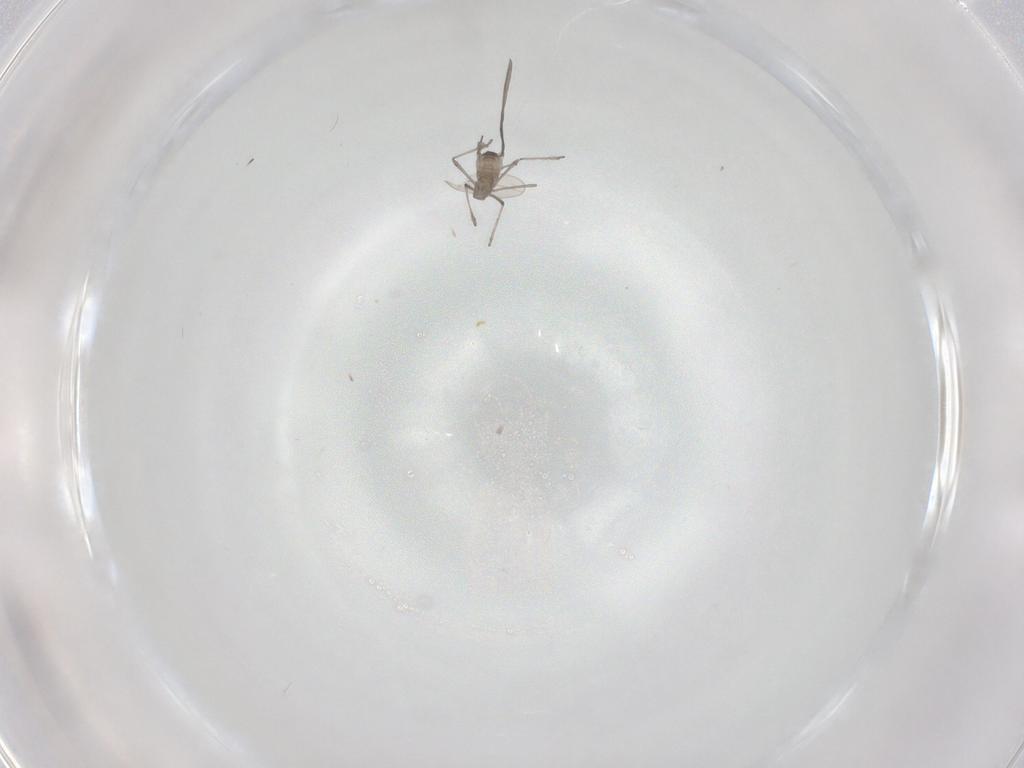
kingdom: Animalia
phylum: Arthropoda
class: Insecta
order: Diptera
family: Cecidomyiidae
